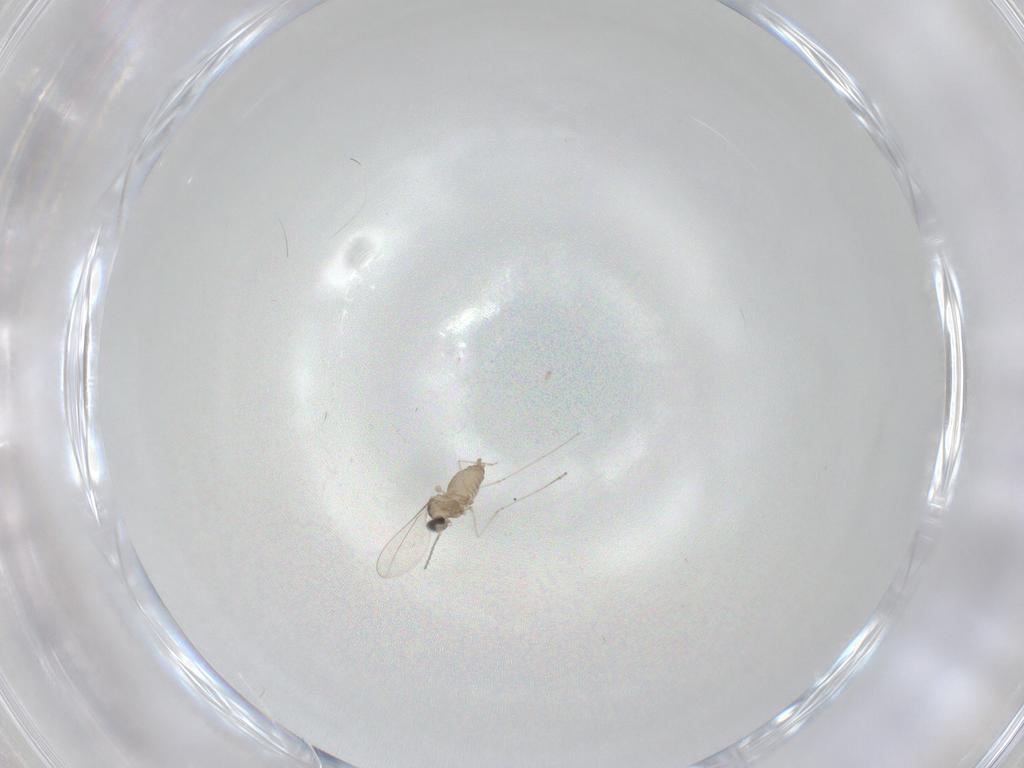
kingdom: Animalia
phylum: Arthropoda
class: Insecta
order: Diptera
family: Cecidomyiidae
